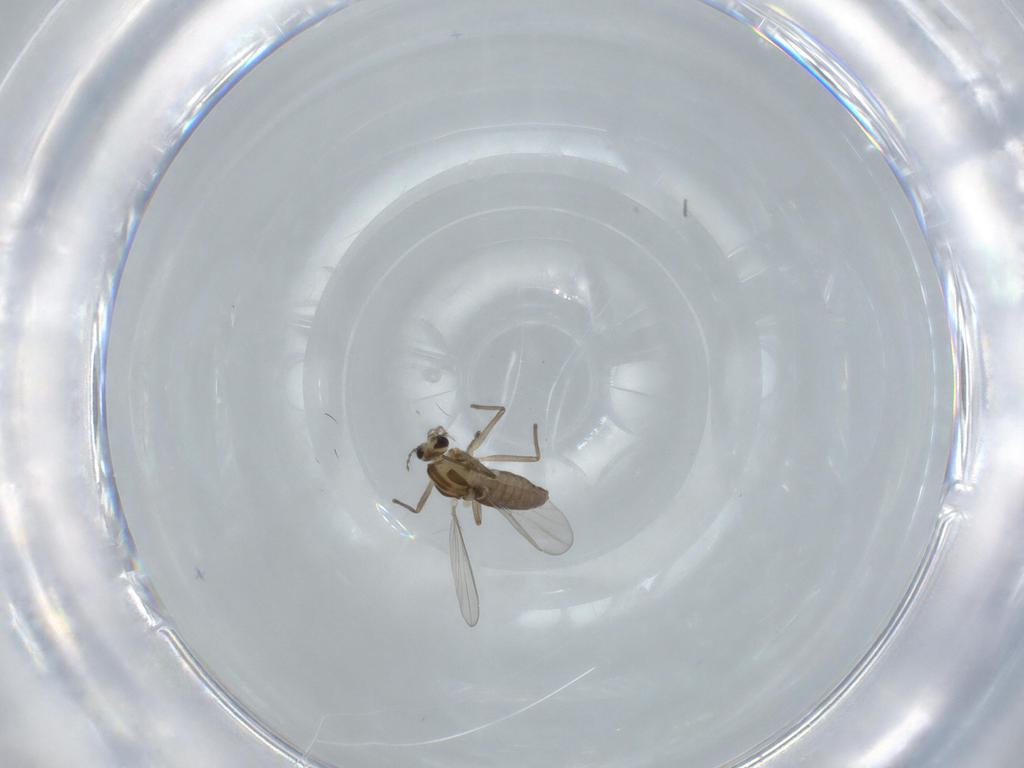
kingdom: Animalia
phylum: Arthropoda
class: Insecta
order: Diptera
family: Chironomidae
